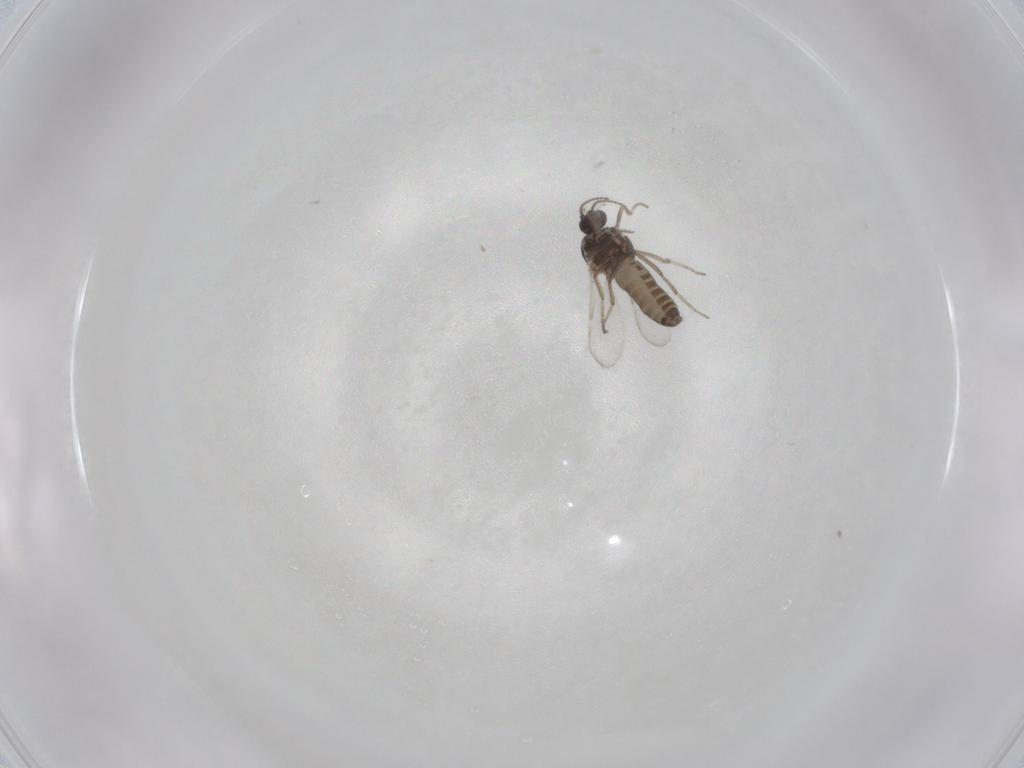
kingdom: Animalia
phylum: Arthropoda
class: Insecta
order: Diptera
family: Ceratopogonidae
